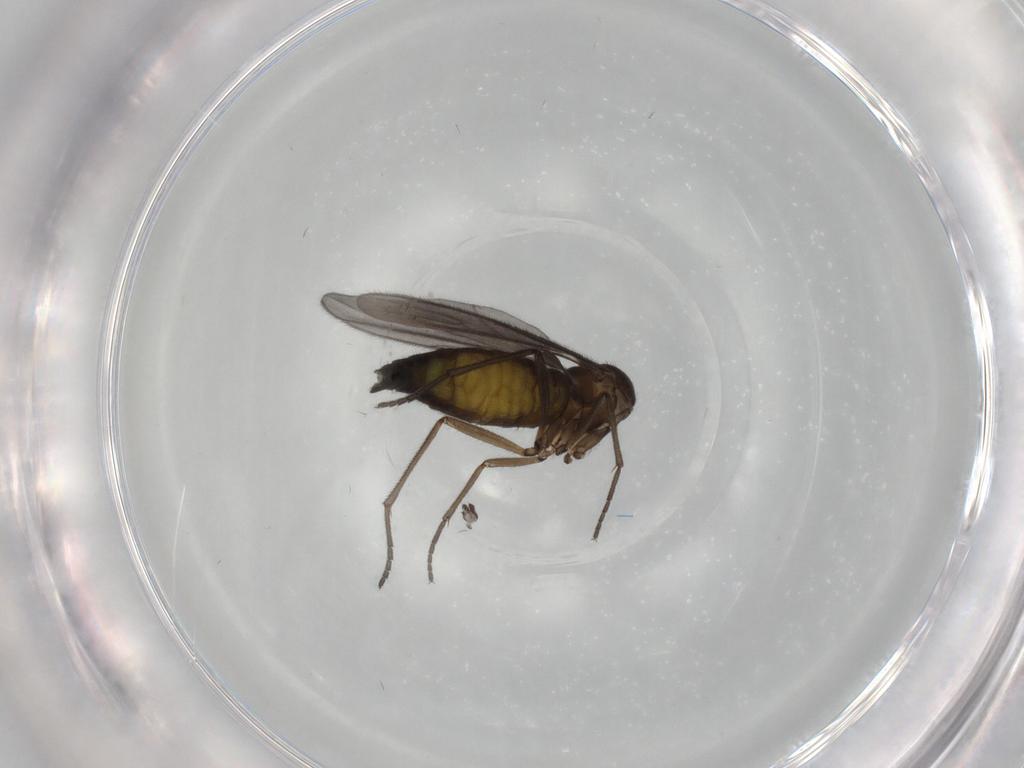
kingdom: Animalia
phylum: Arthropoda
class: Insecta
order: Diptera
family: Sciaridae
